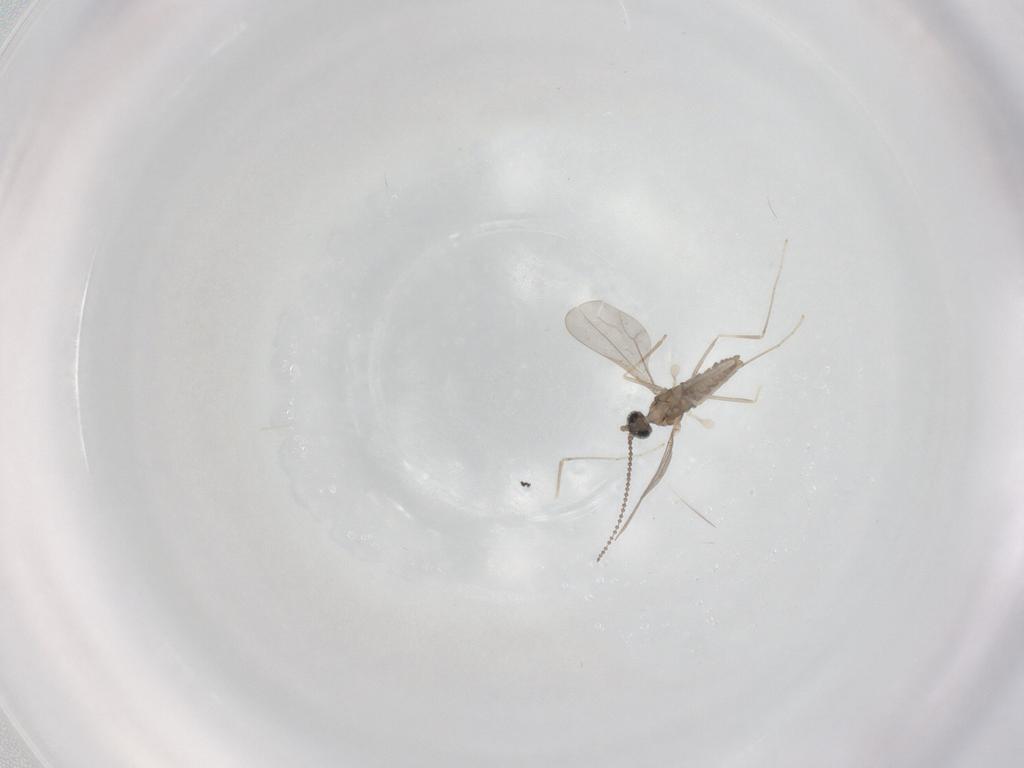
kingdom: Animalia
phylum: Arthropoda
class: Insecta
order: Diptera
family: Cecidomyiidae
